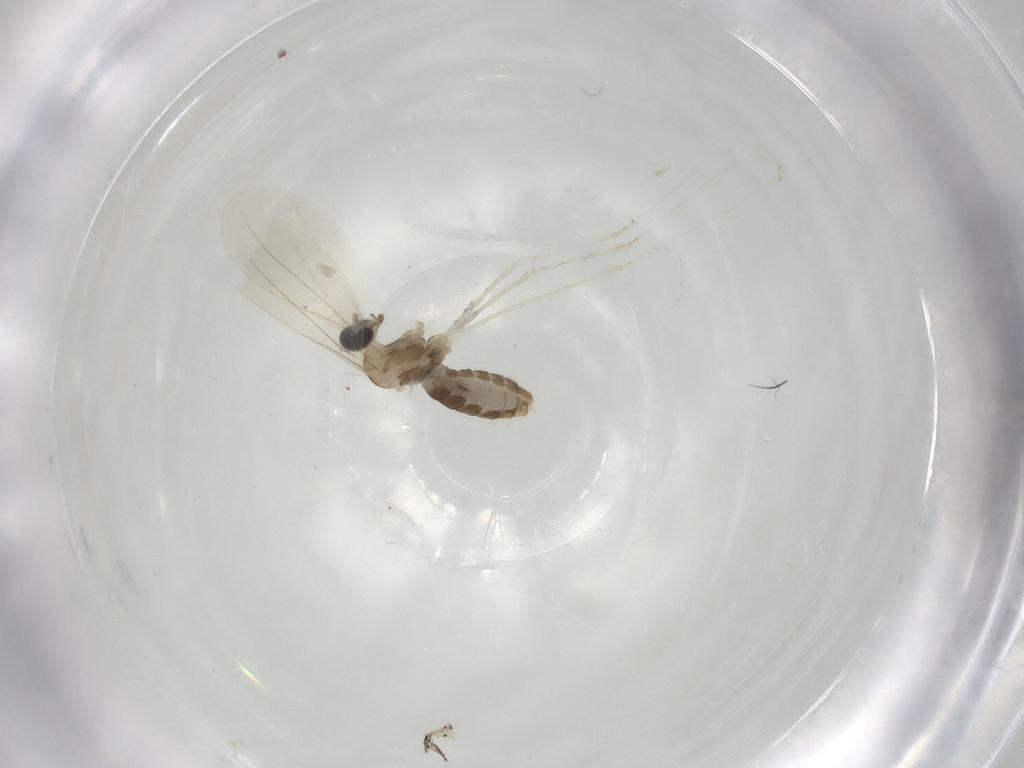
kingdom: Animalia
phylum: Arthropoda
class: Insecta
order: Diptera
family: Cecidomyiidae
